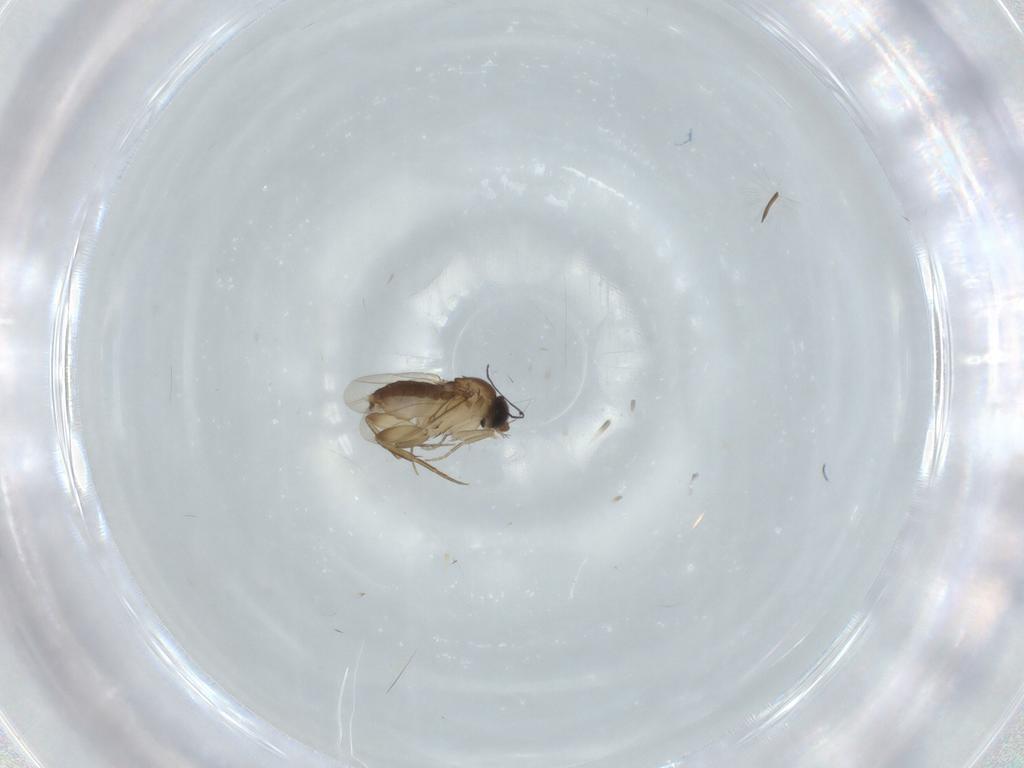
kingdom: Animalia
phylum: Arthropoda
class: Insecta
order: Diptera
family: Phoridae
